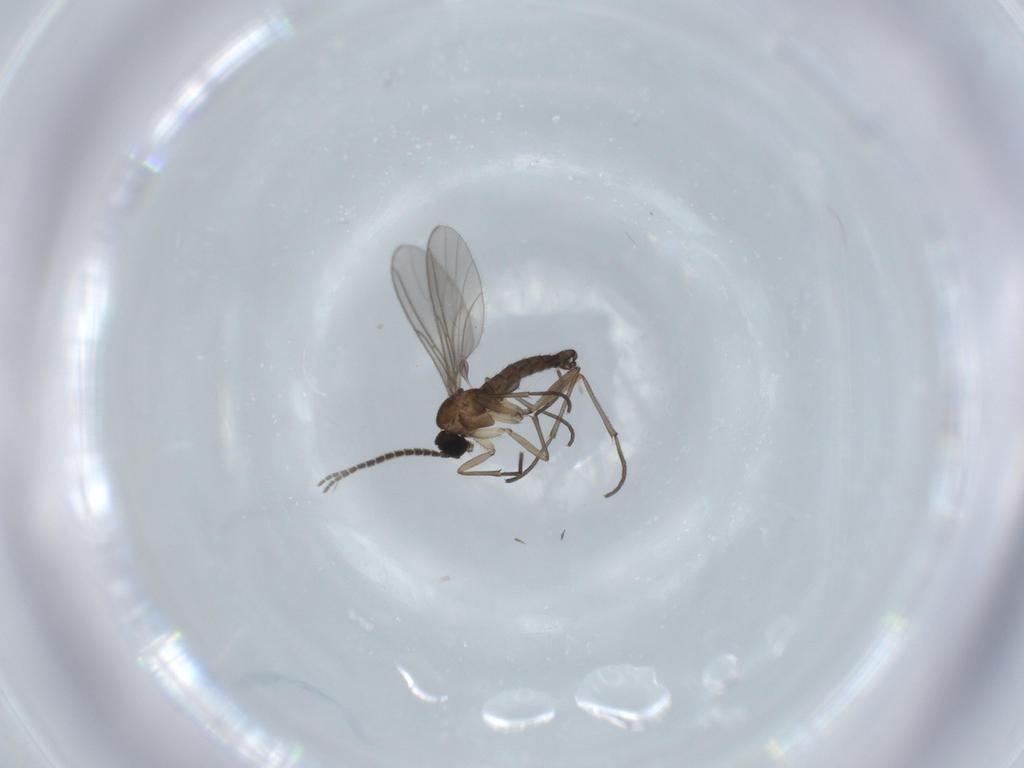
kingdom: Animalia
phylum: Arthropoda
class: Insecta
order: Diptera
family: Sciaridae
